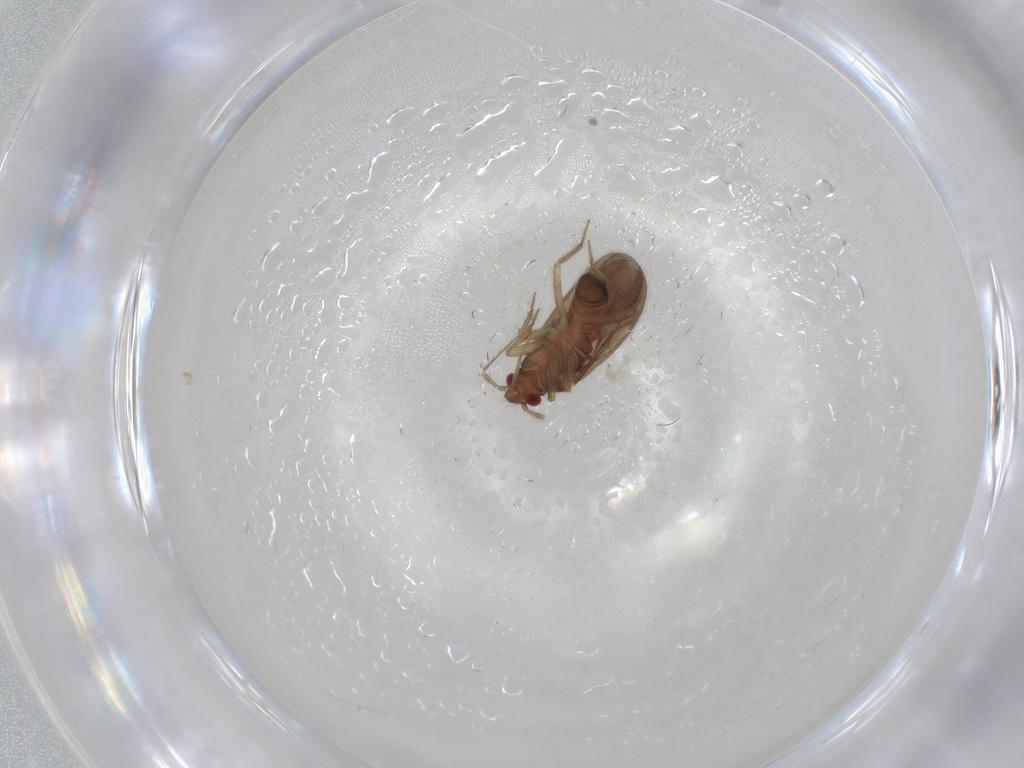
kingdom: Animalia
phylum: Arthropoda
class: Insecta
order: Hemiptera
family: Ceratocombidae
